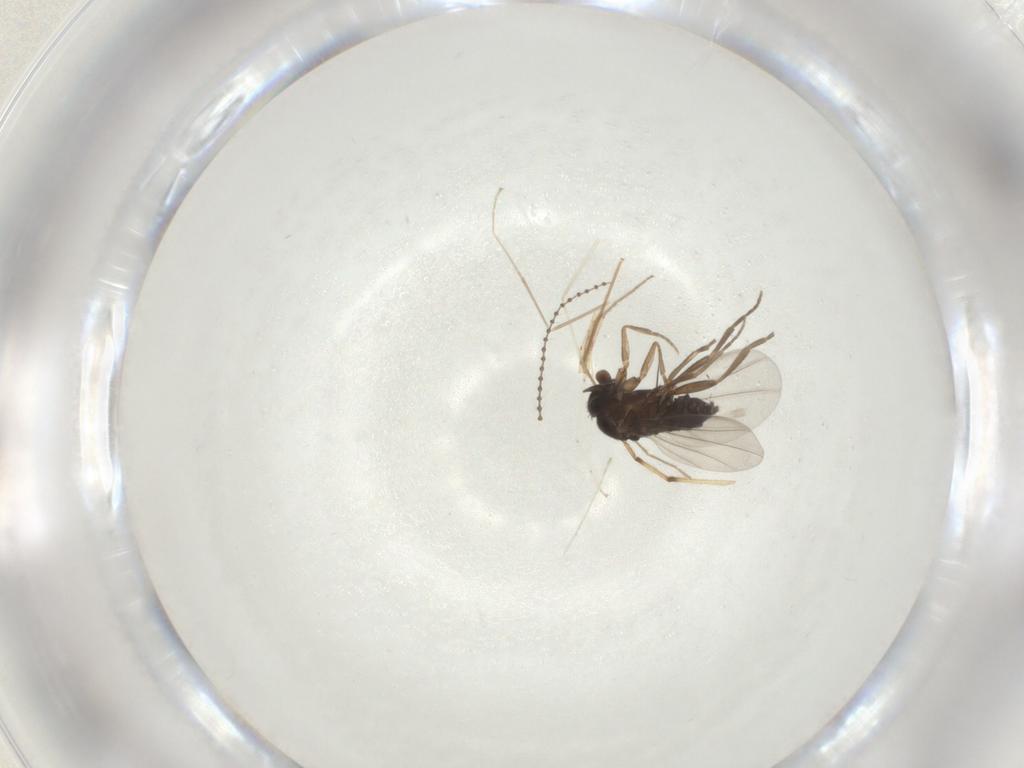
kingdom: Animalia
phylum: Arthropoda
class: Insecta
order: Diptera
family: Phoridae
